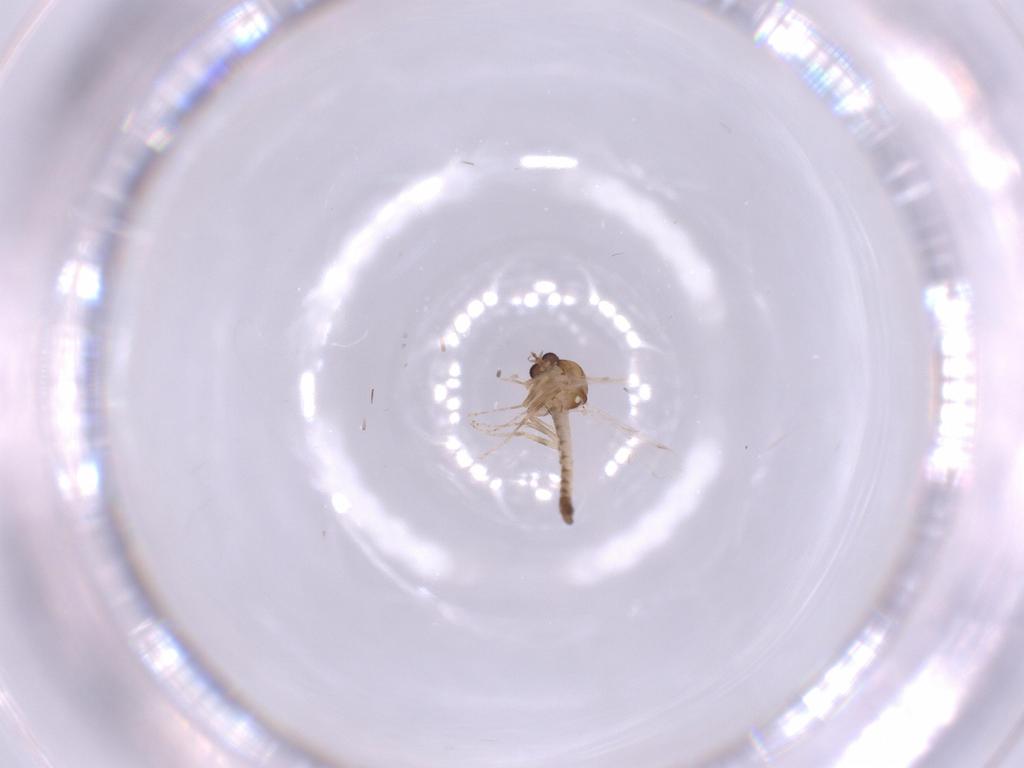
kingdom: Animalia
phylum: Arthropoda
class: Insecta
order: Diptera
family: Ceratopogonidae
